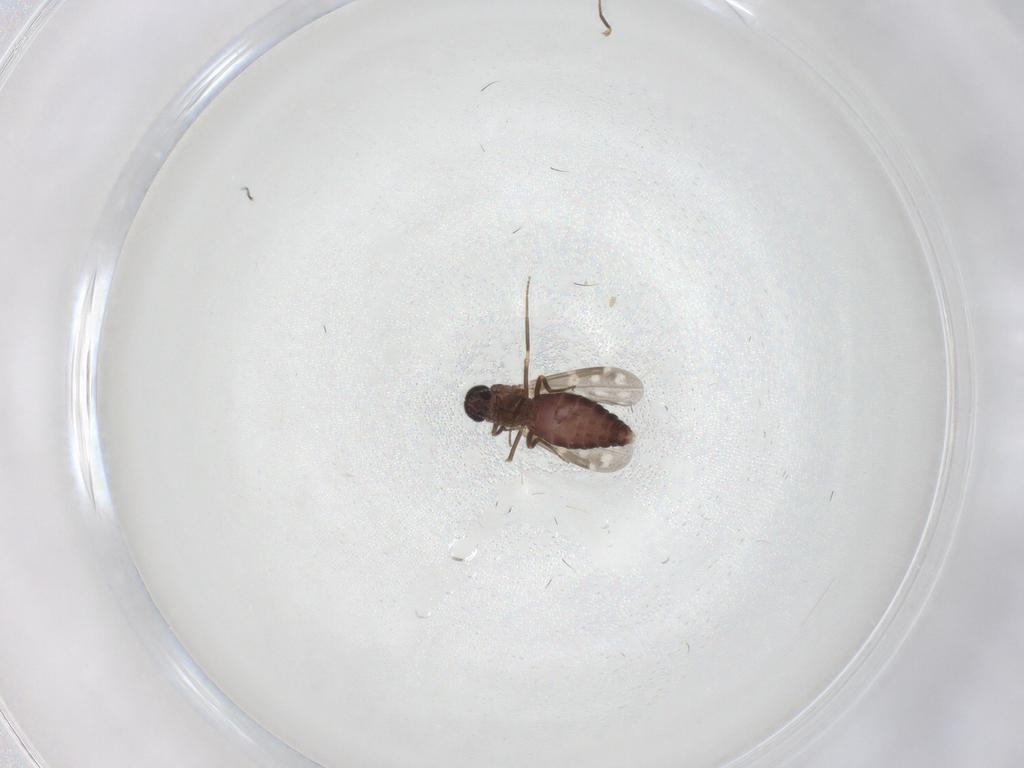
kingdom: Animalia
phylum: Arthropoda
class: Insecta
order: Diptera
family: Ceratopogonidae
